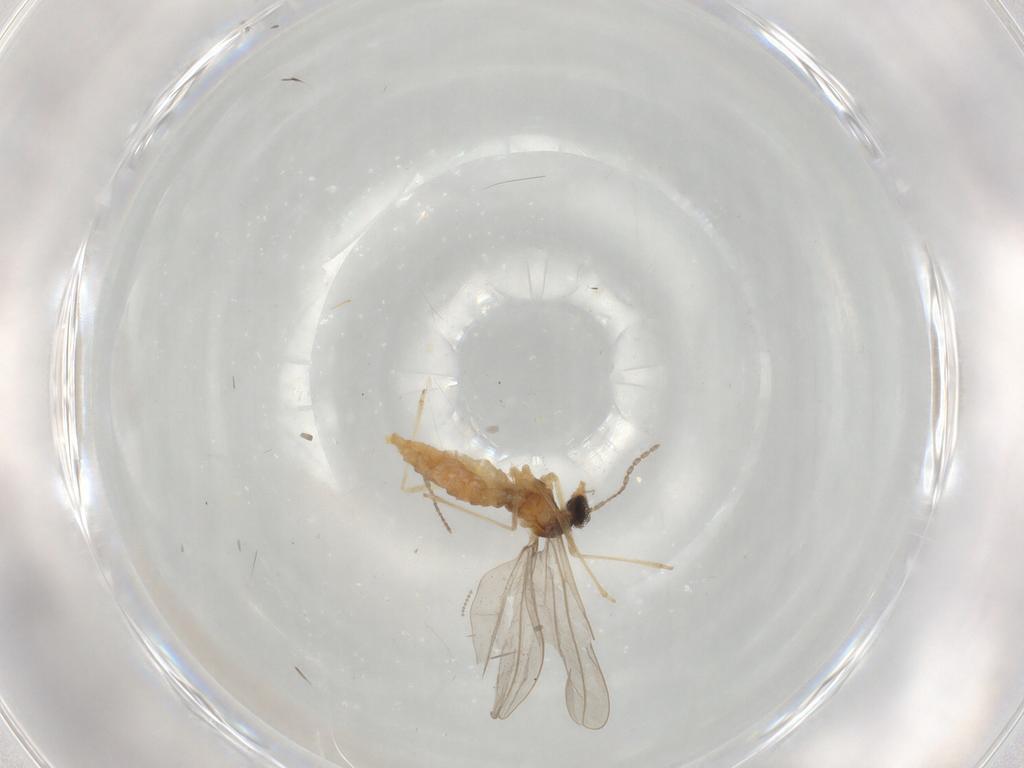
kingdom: Animalia
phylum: Arthropoda
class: Insecta
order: Diptera
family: Cecidomyiidae
